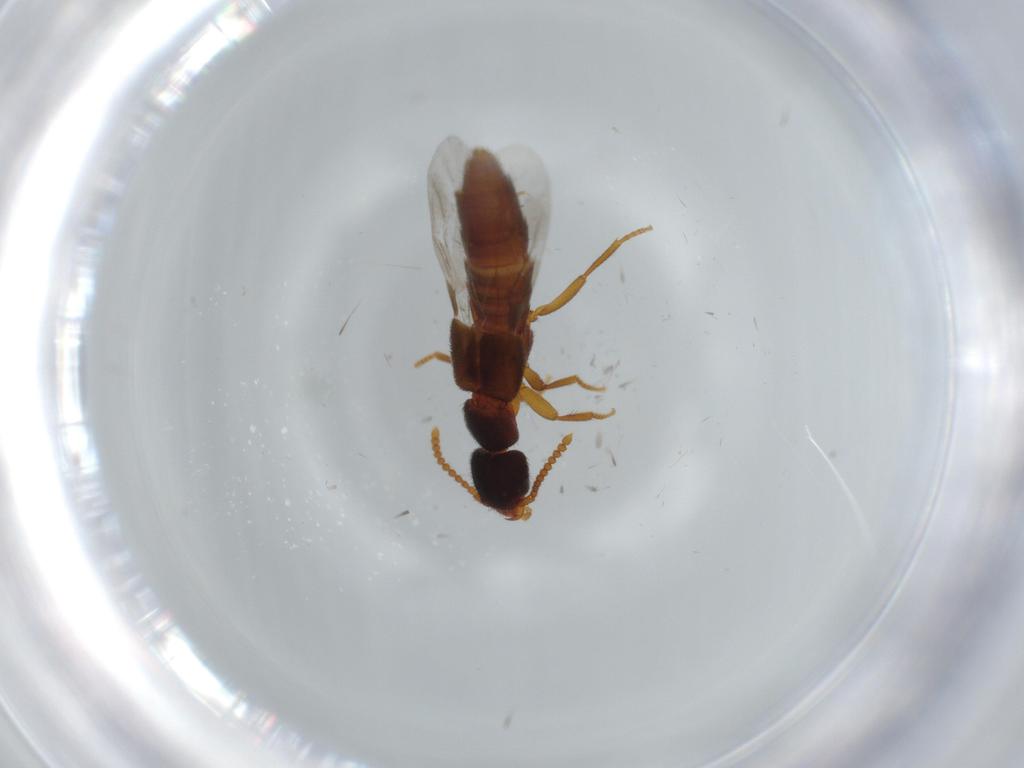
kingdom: Animalia
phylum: Arthropoda
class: Insecta
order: Coleoptera
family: Staphylinidae
